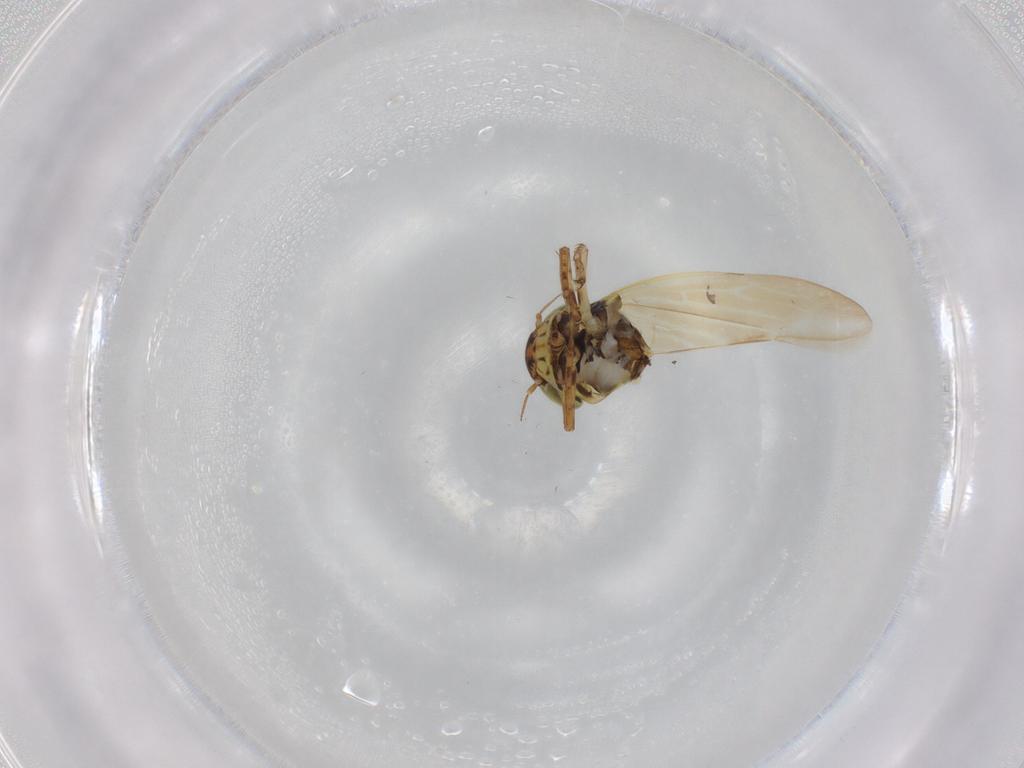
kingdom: Animalia
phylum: Arthropoda
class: Insecta
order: Hemiptera
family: Cicadellidae
